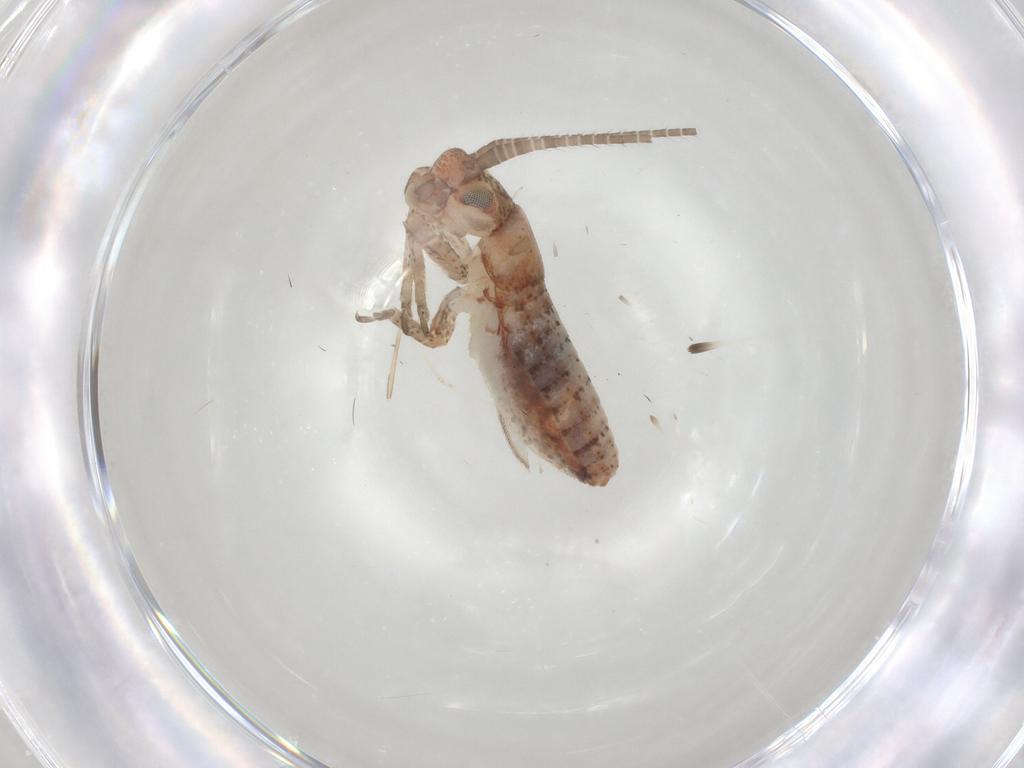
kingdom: Animalia
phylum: Arthropoda
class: Insecta
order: Orthoptera
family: Mogoplistidae
